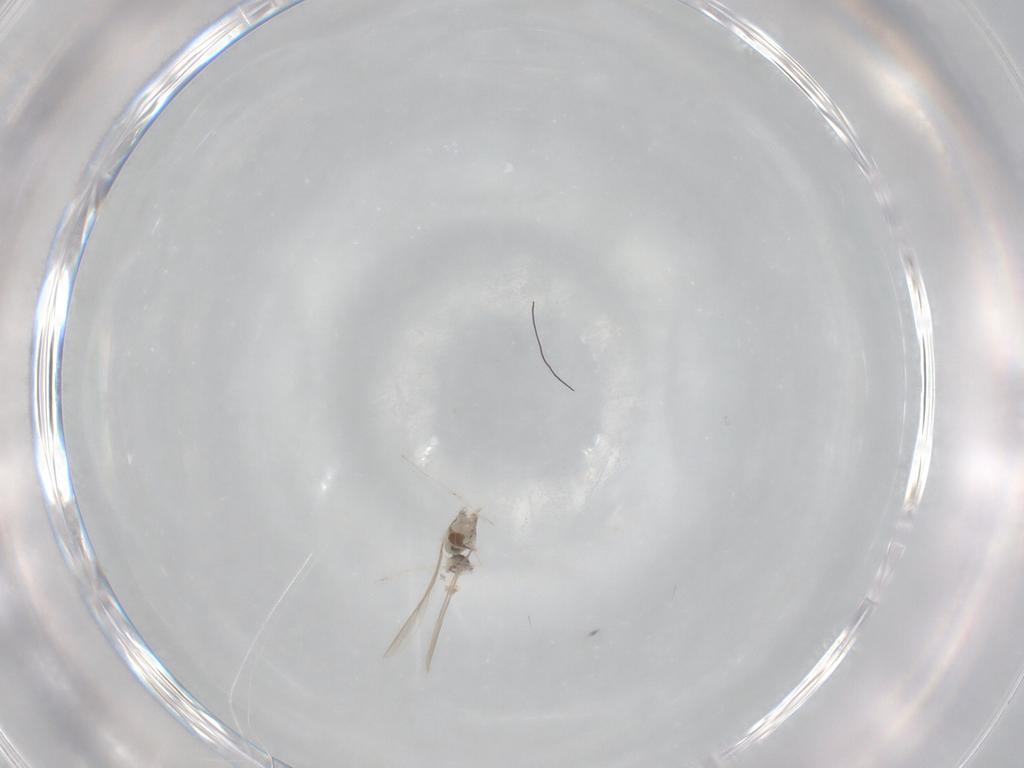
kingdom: Animalia
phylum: Arthropoda
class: Insecta
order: Diptera
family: Cecidomyiidae
